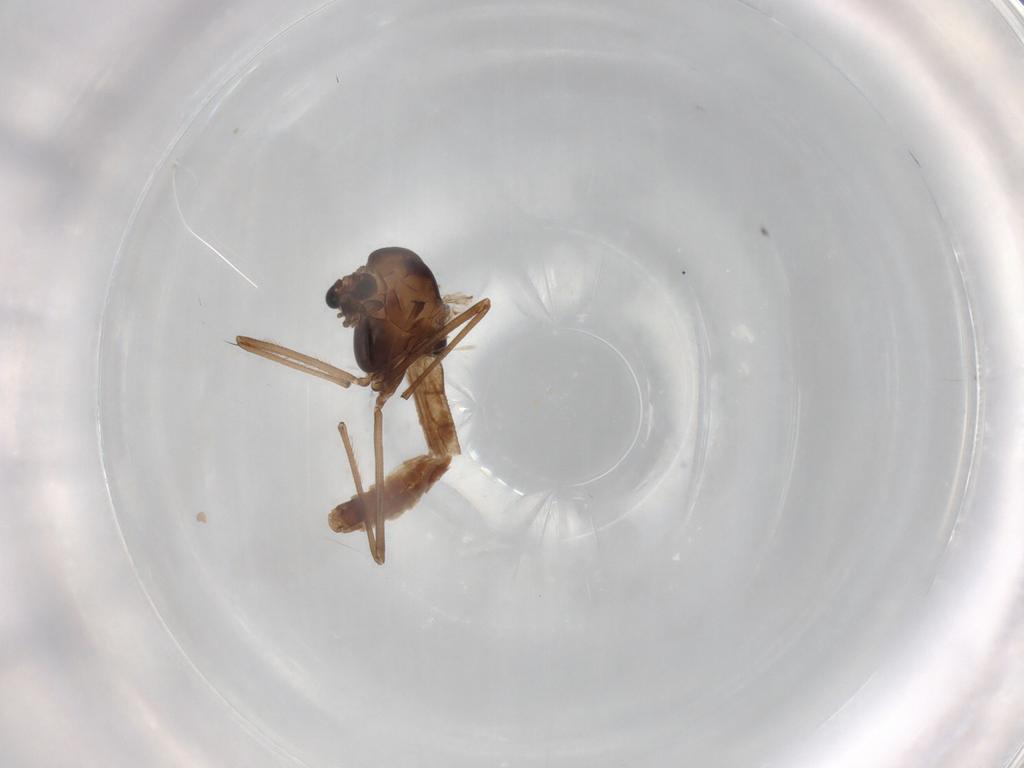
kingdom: Animalia
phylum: Arthropoda
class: Insecta
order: Diptera
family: Chironomidae
